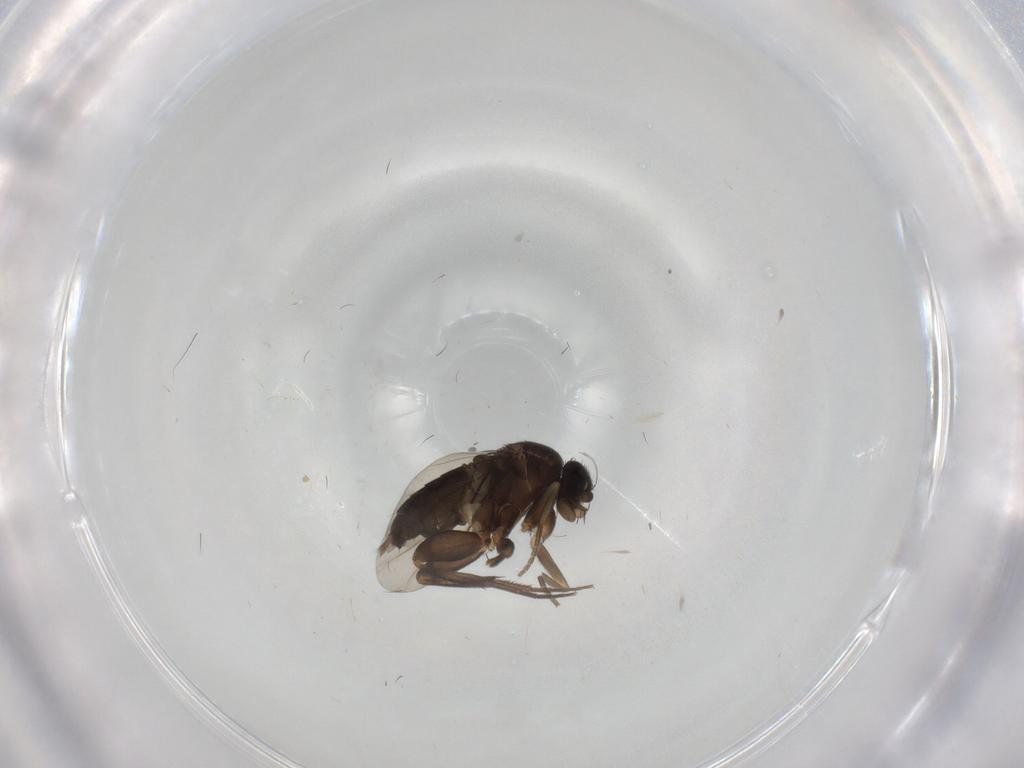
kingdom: Animalia
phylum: Arthropoda
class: Insecta
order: Diptera
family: Phoridae
